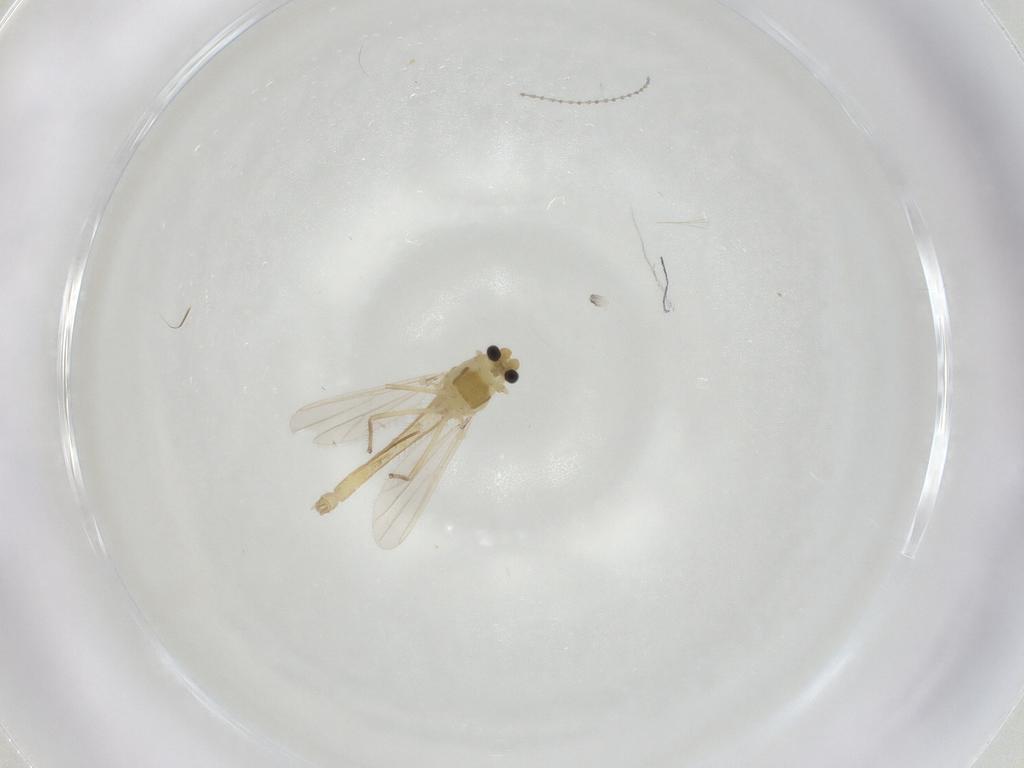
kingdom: Animalia
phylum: Arthropoda
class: Insecta
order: Diptera
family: Chironomidae
